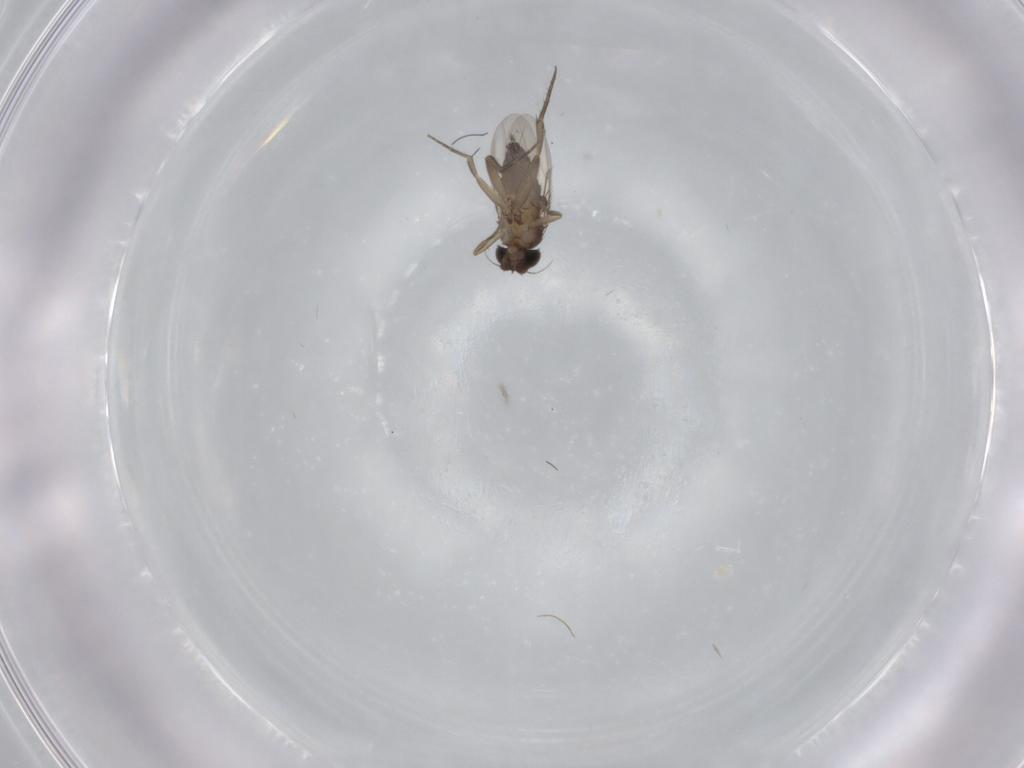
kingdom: Animalia
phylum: Arthropoda
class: Insecta
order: Diptera
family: Phoridae
